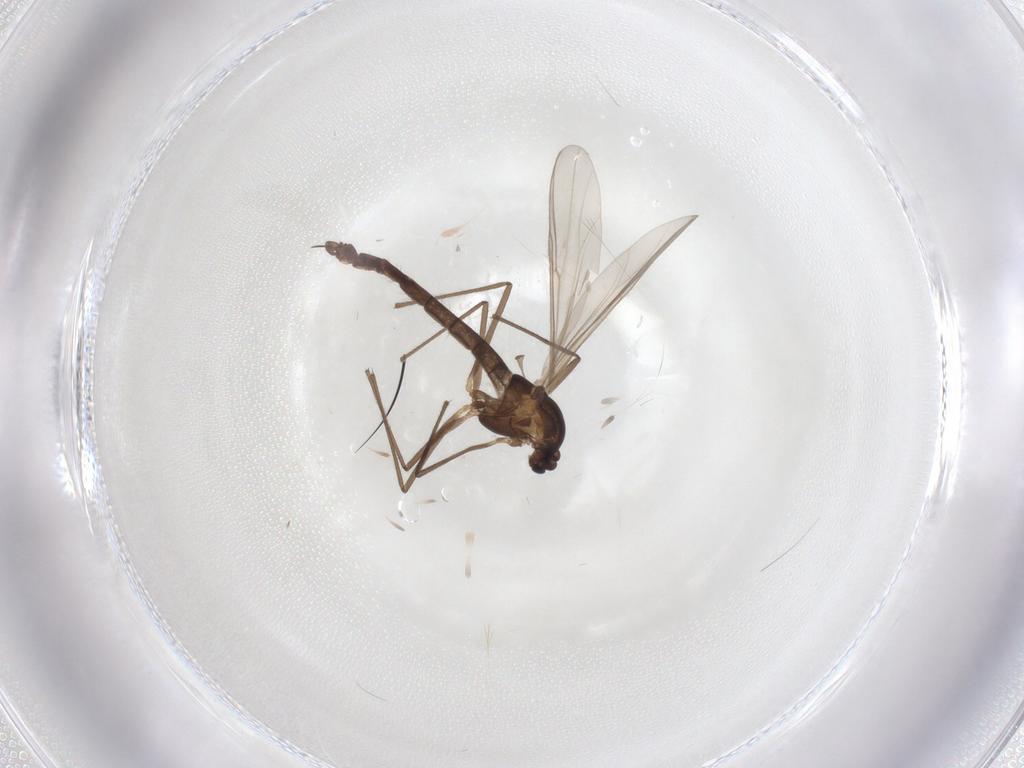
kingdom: Animalia
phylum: Arthropoda
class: Insecta
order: Diptera
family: Chironomidae
